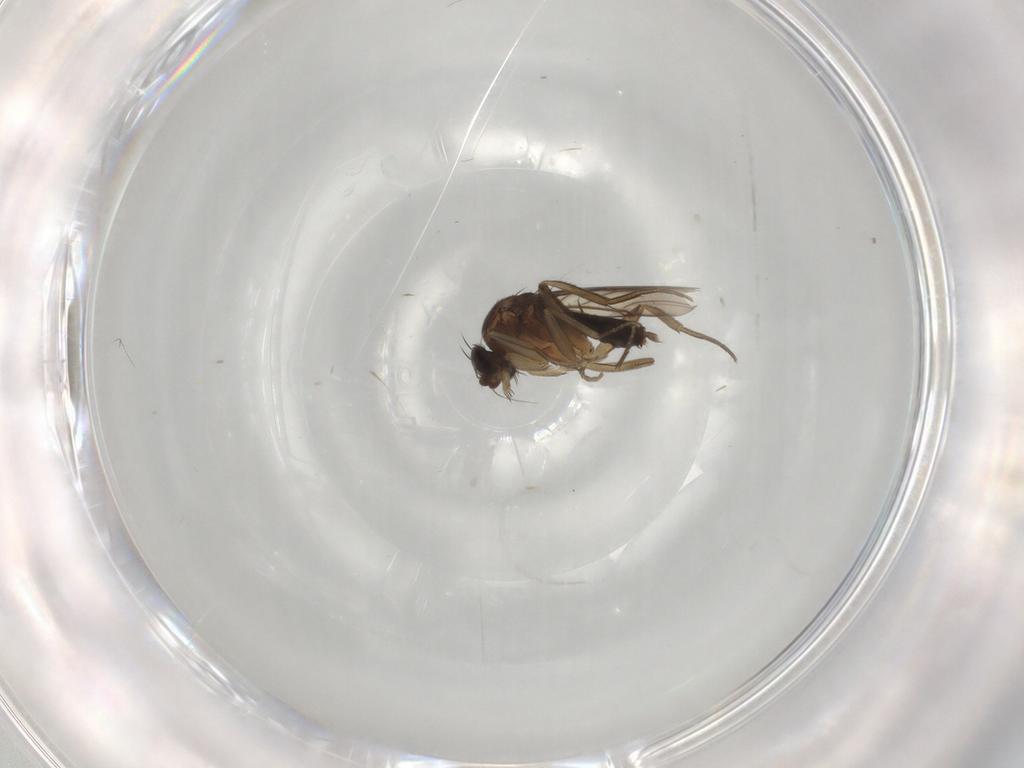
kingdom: Animalia
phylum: Arthropoda
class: Insecta
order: Diptera
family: Phoridae
